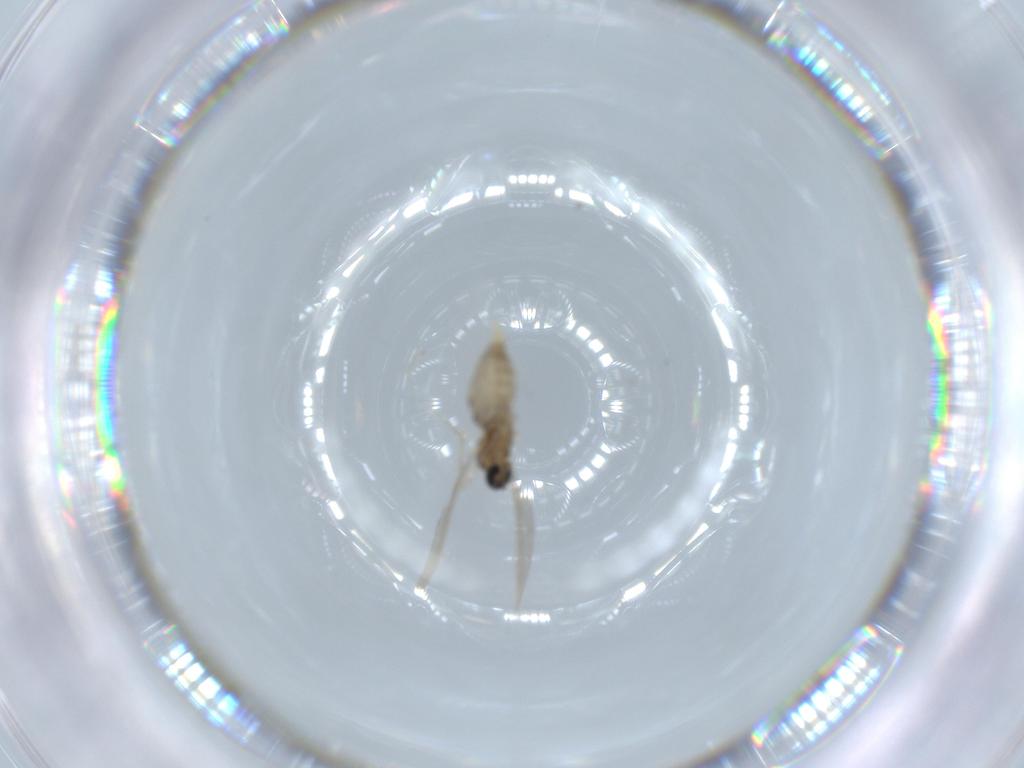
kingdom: Animalia
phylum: Arthropoda
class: Insecta
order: Diptera
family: Cecidomyiidae
